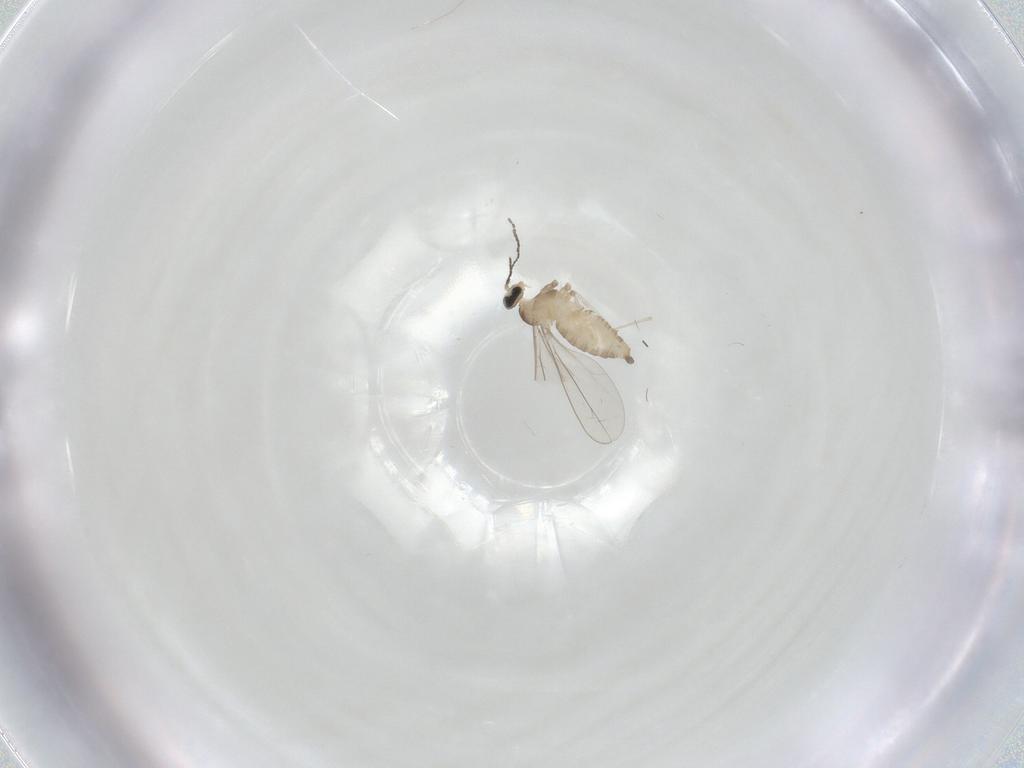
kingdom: Animalia
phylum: Arthropoda
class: Insecta
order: Diptera
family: Cecidomyiidae
